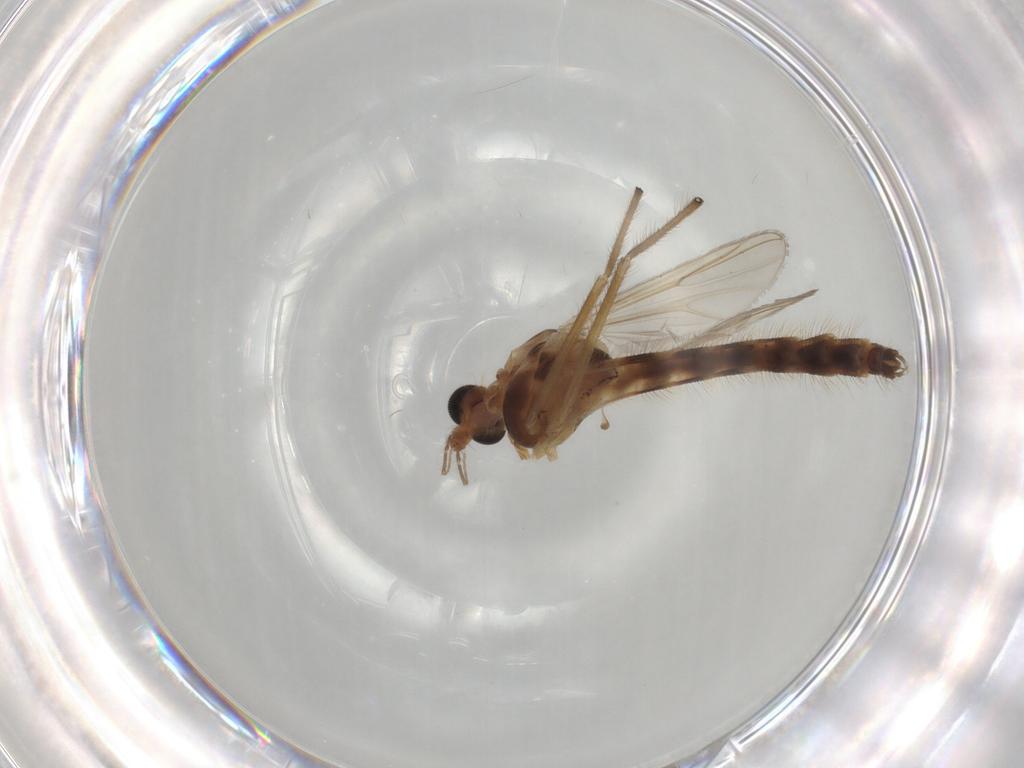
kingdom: Animalia
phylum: Arthropoda
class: Insecta
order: Diptera
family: Chironomidae
